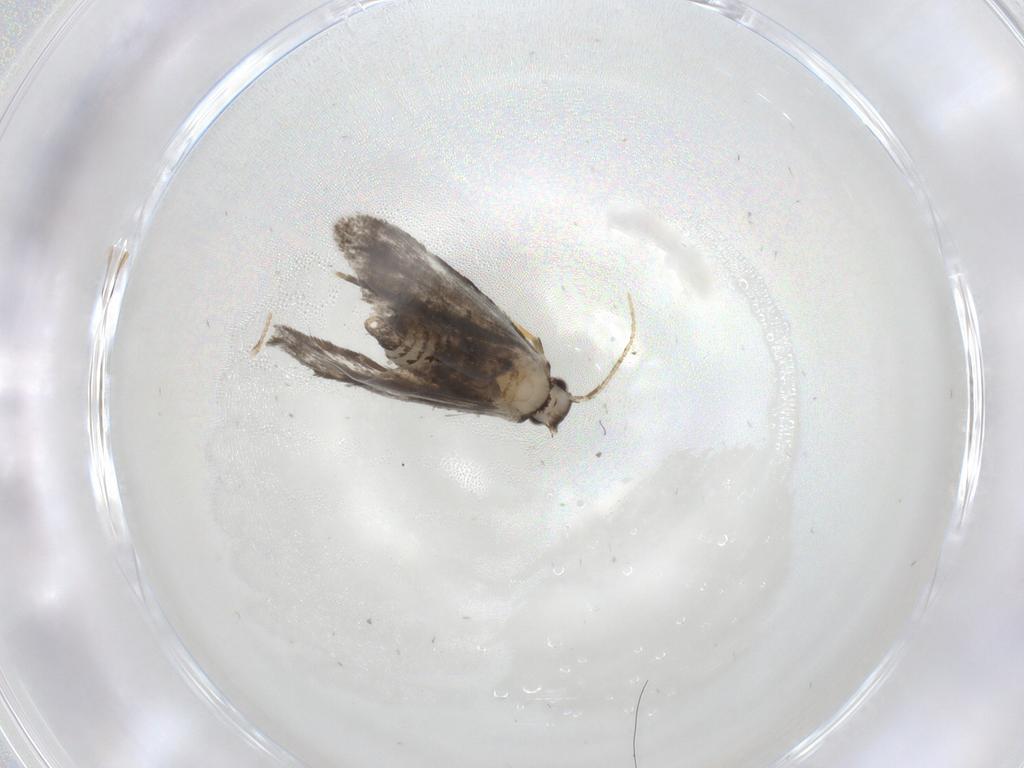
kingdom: Animalia
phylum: Arthropoda
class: Insecta
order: Lepidoptera
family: Psychidae
